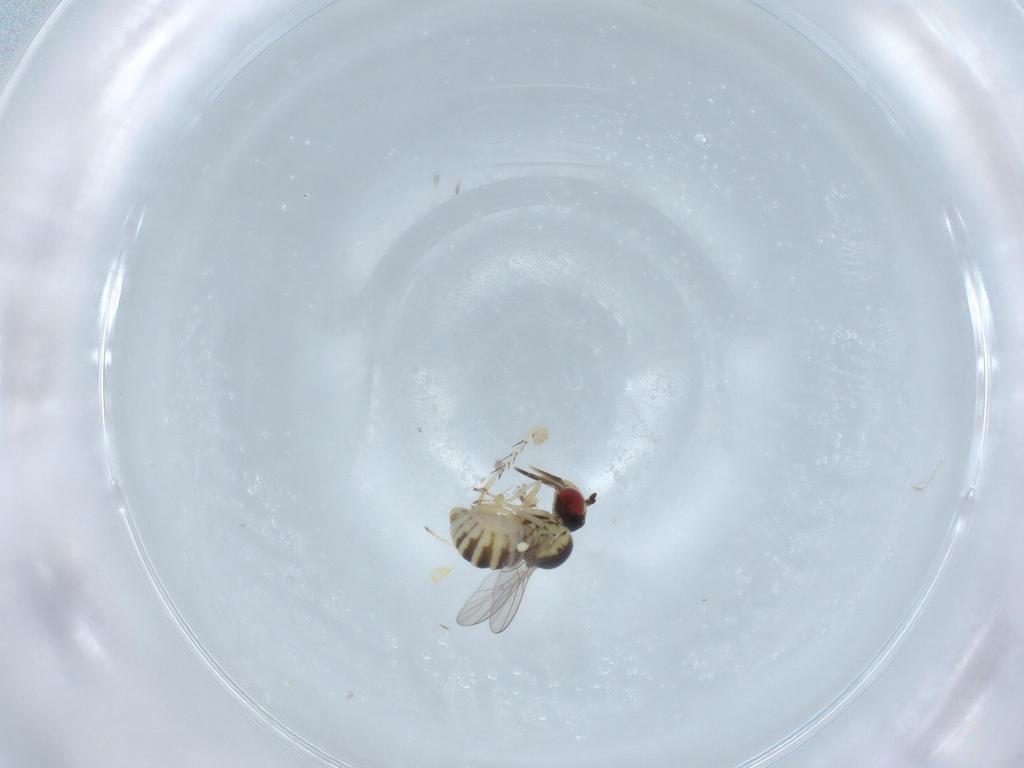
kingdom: Animalia
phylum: Arthropoda
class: Insecta
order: Diptera
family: Chloropidae
